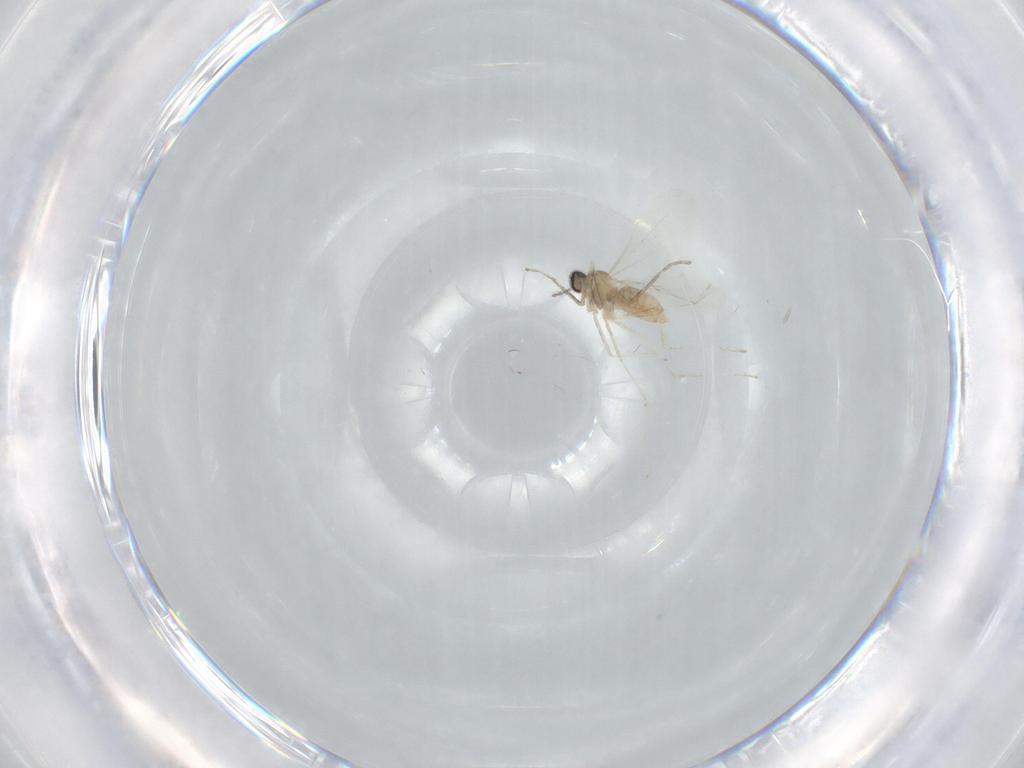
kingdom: Animalia
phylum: Arthropoda
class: Insecta
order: Diptera
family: Cecidomyiidae
